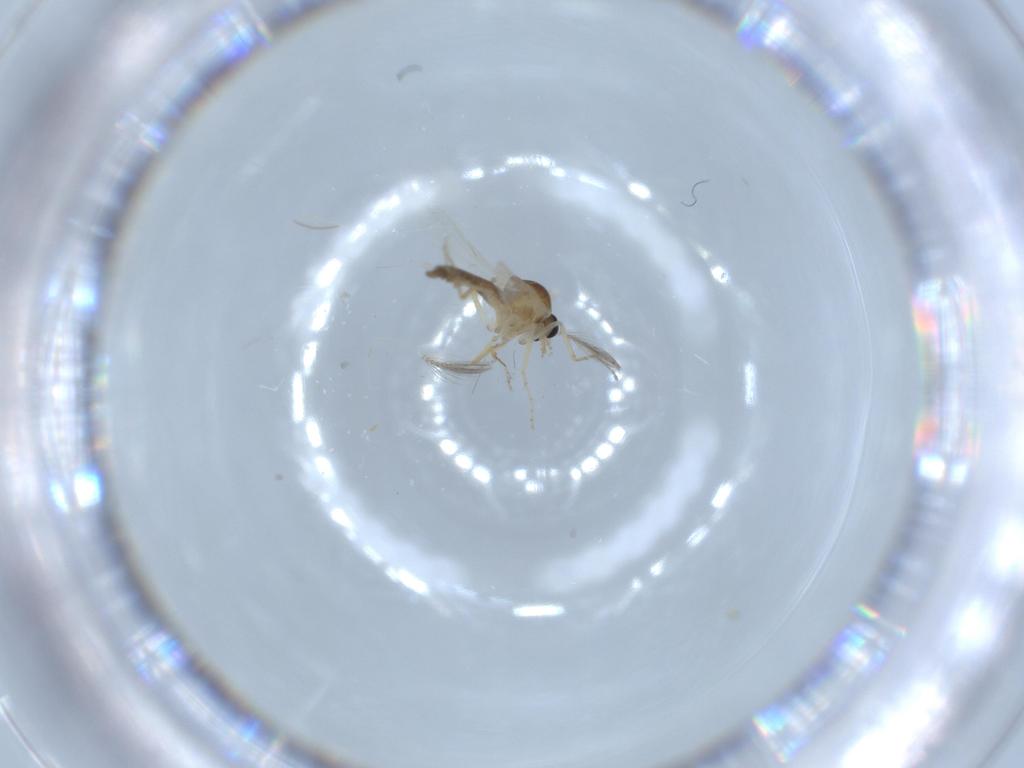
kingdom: Animalia
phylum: Arthropoda
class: Insecta
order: Diptera
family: Ceratopogonidae
